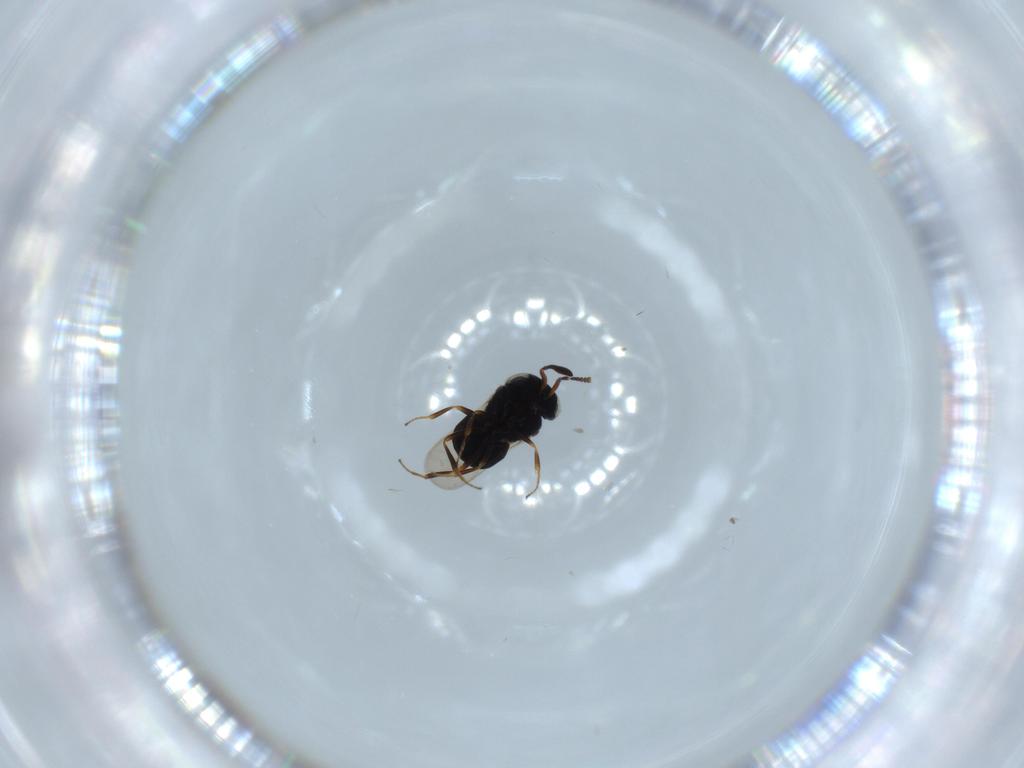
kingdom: Animalia
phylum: Arthropoda
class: Insecta
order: Hymenoptera
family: Scelionidae
